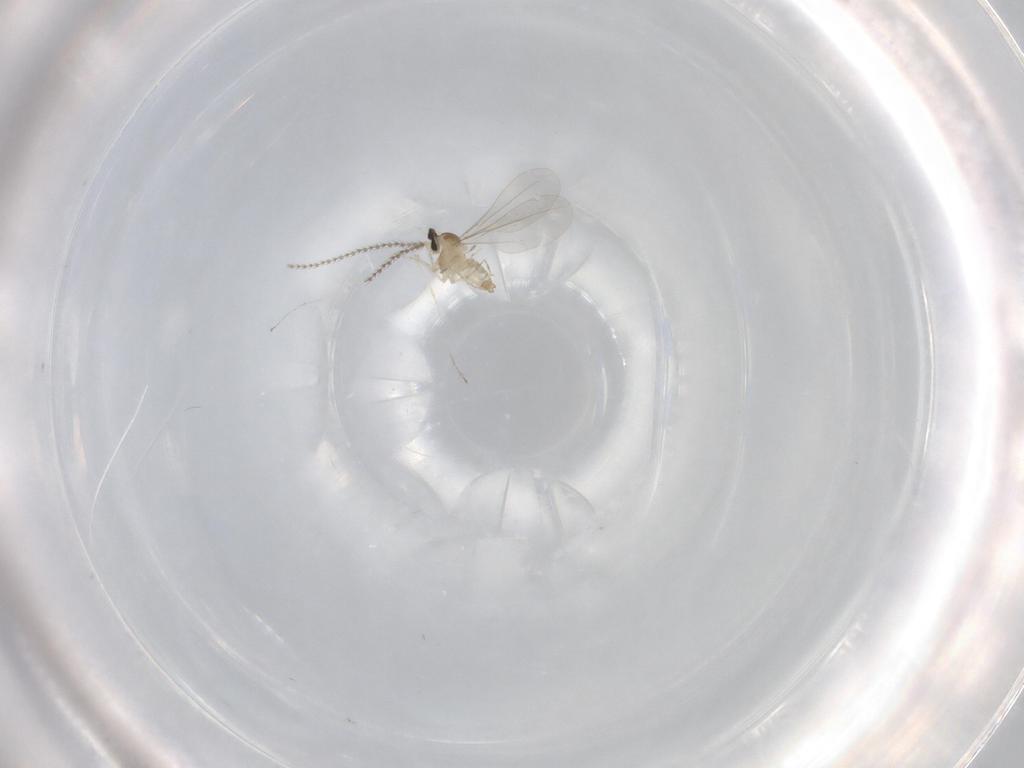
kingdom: Animalia
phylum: Arthropoda
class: Insecta
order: Diptera
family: Cecidomyiidae
